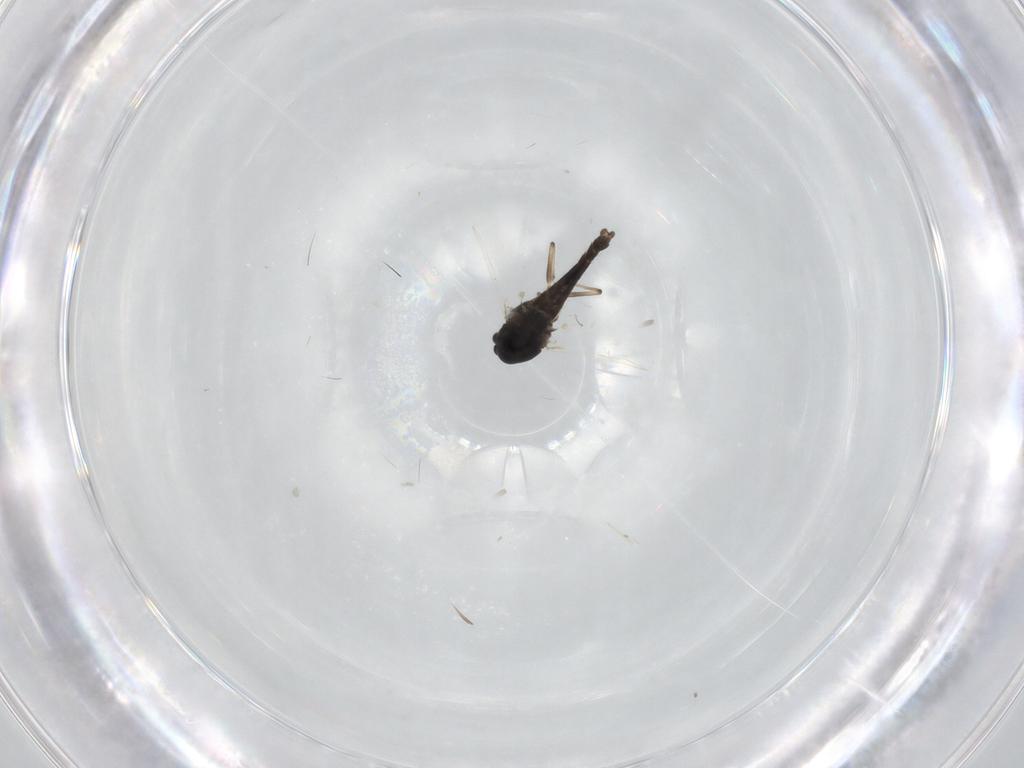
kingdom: Animalia
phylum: Arthropoda
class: Insecta
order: Diptera
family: Chironomidae
